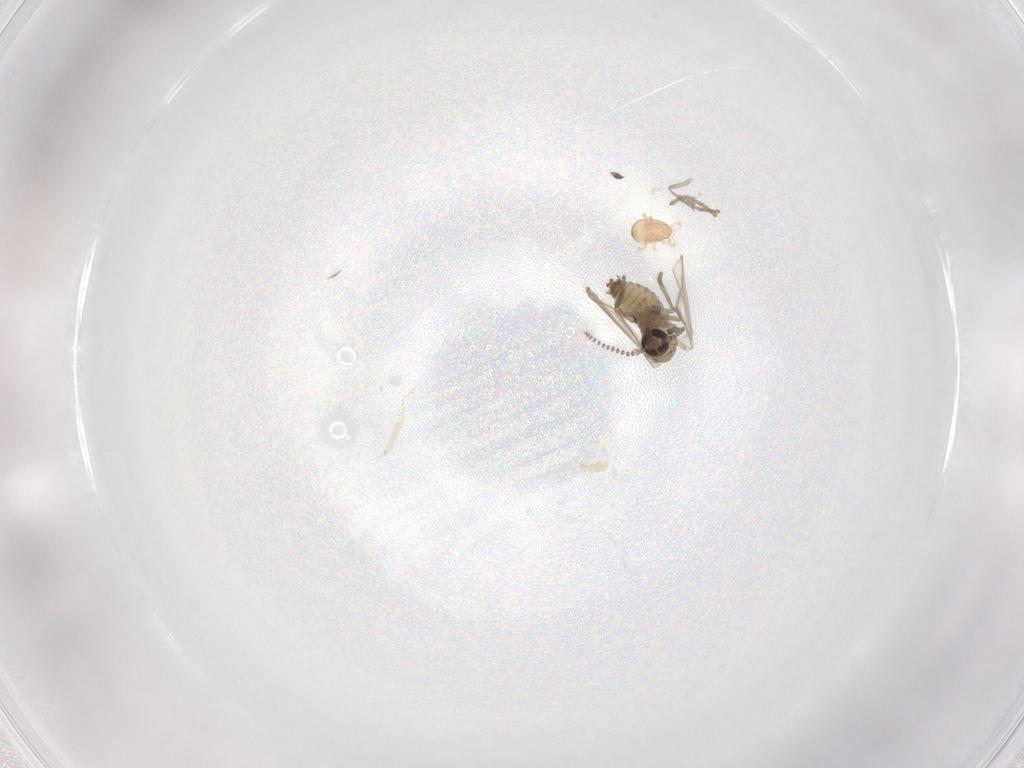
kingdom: Animalia
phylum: Arthropoda
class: Insecta
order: Diptera
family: Psychodidae
